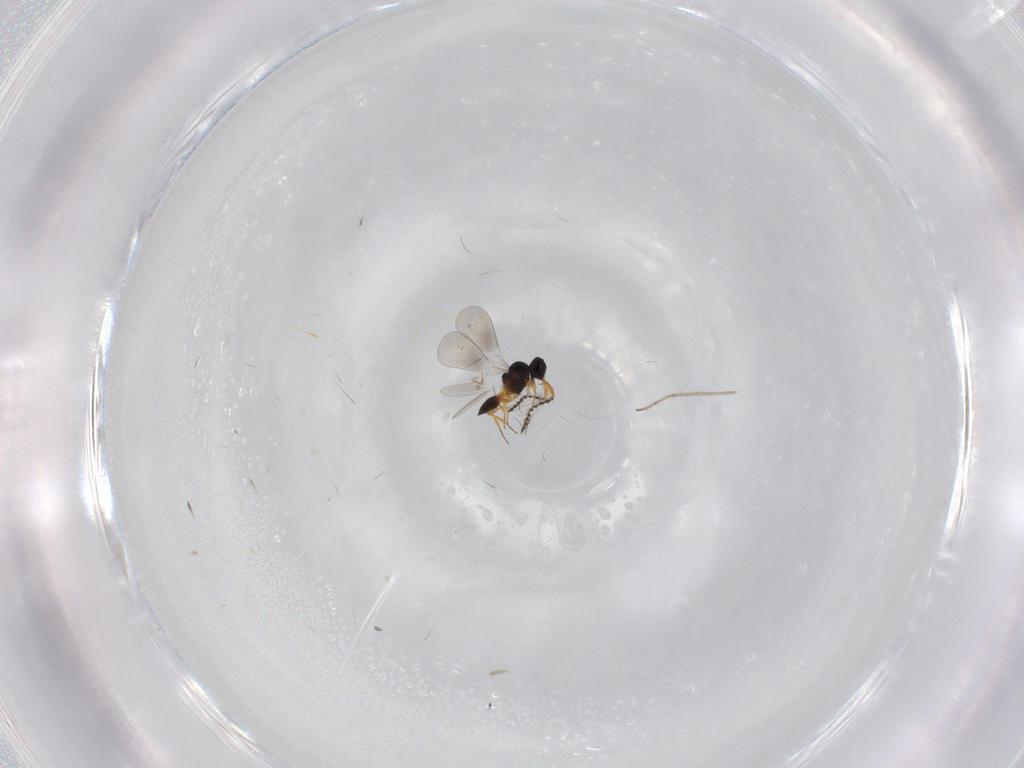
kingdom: Animalia
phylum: Arthropoda
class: Insecta
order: Hymenoptera
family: Platygastridae
